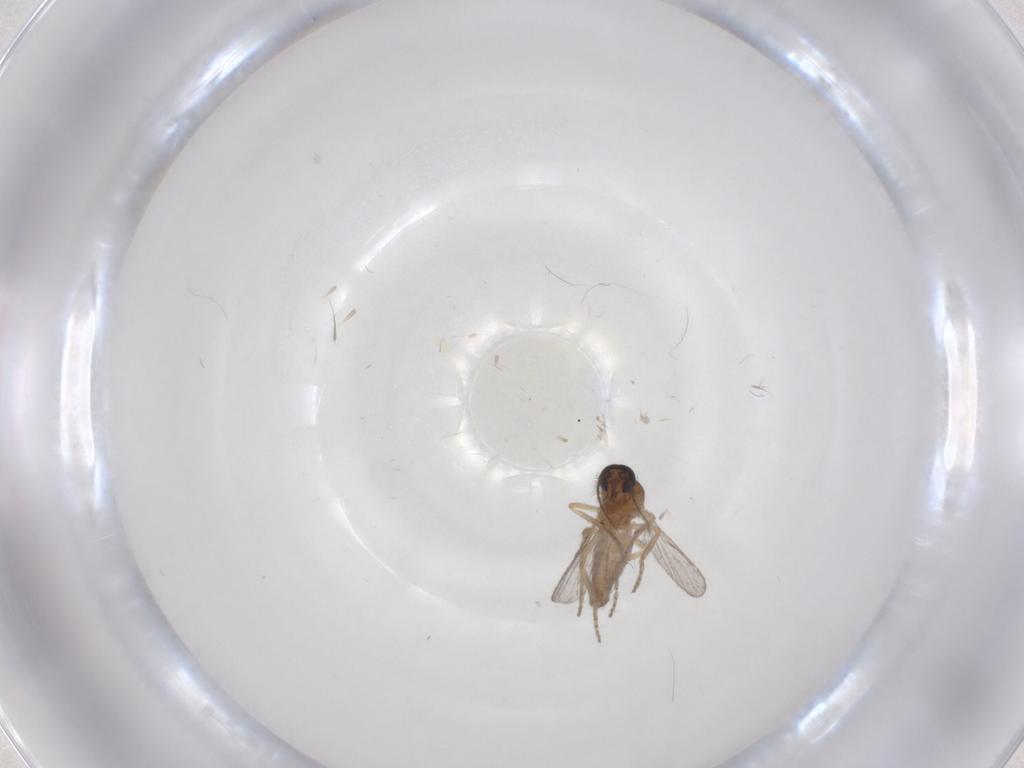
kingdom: Animalia
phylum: Arthropoda
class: Insecta
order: Diptera
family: Ceratopogonidae
